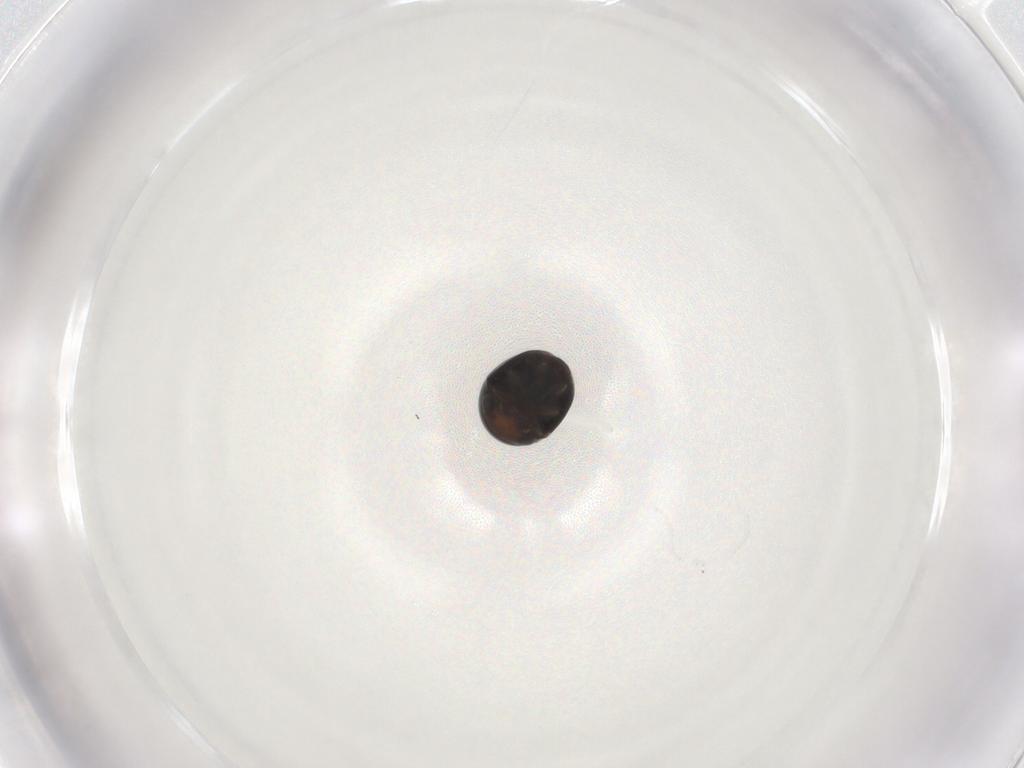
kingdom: Animalia
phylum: Arthropoda
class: Insecta
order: Coleoptera
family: Cybocephalidae
